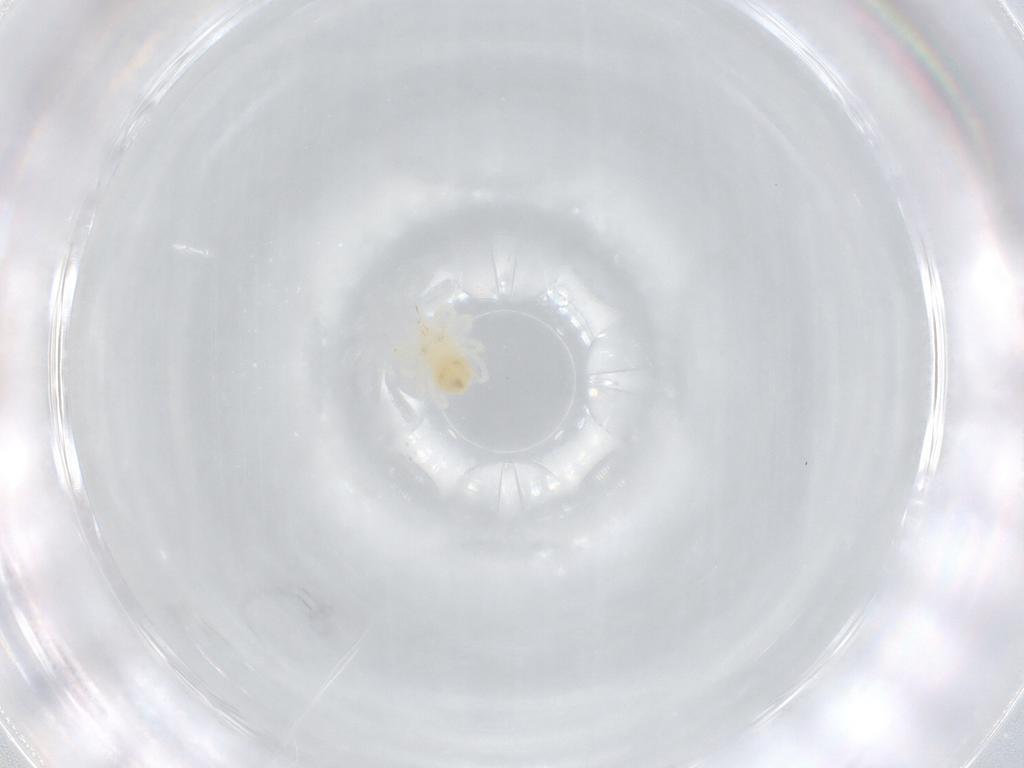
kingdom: Animalia
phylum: Arthropoda
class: Arachnida
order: Trombidiformes
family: Anystidae
